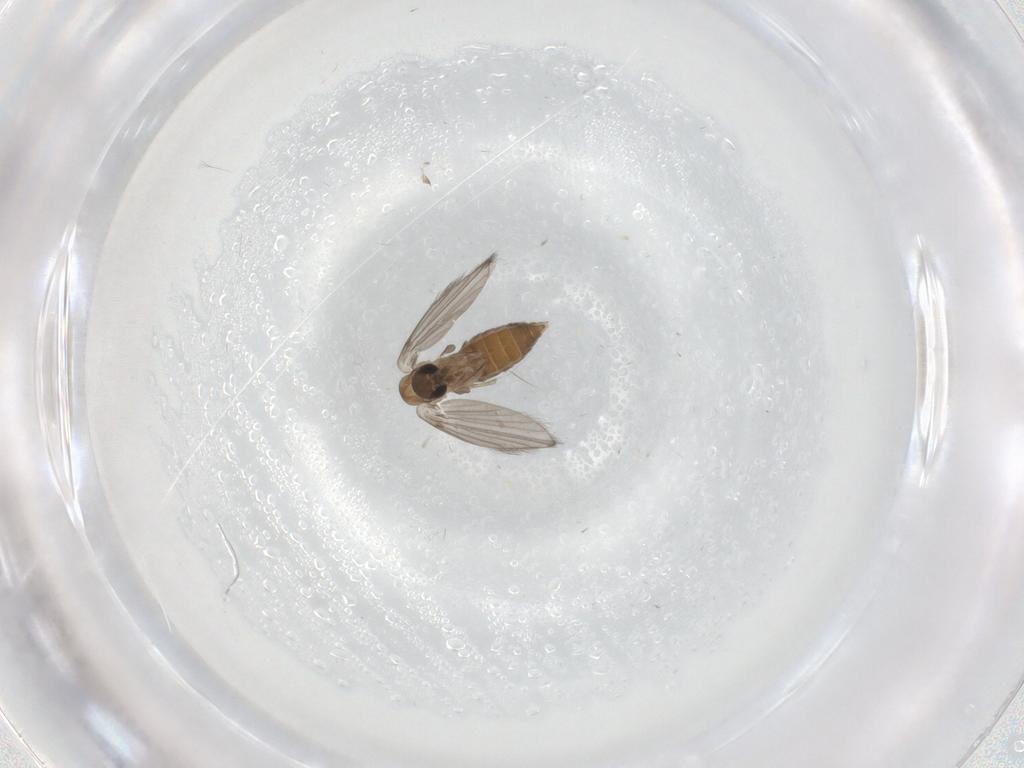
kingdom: Animalia
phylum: Arthropoda
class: Insecta
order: Diptera
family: Psychodidae
